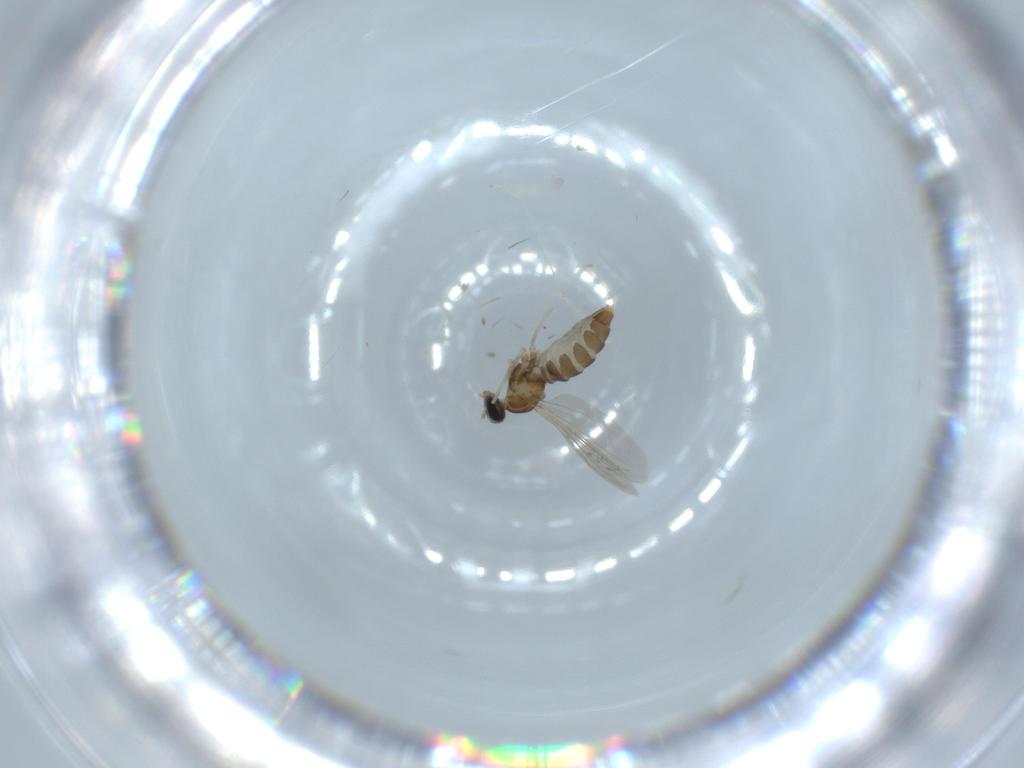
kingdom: Animalia
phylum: Arthropoda
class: Insecta
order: Diptera
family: Cecidomyiidae
